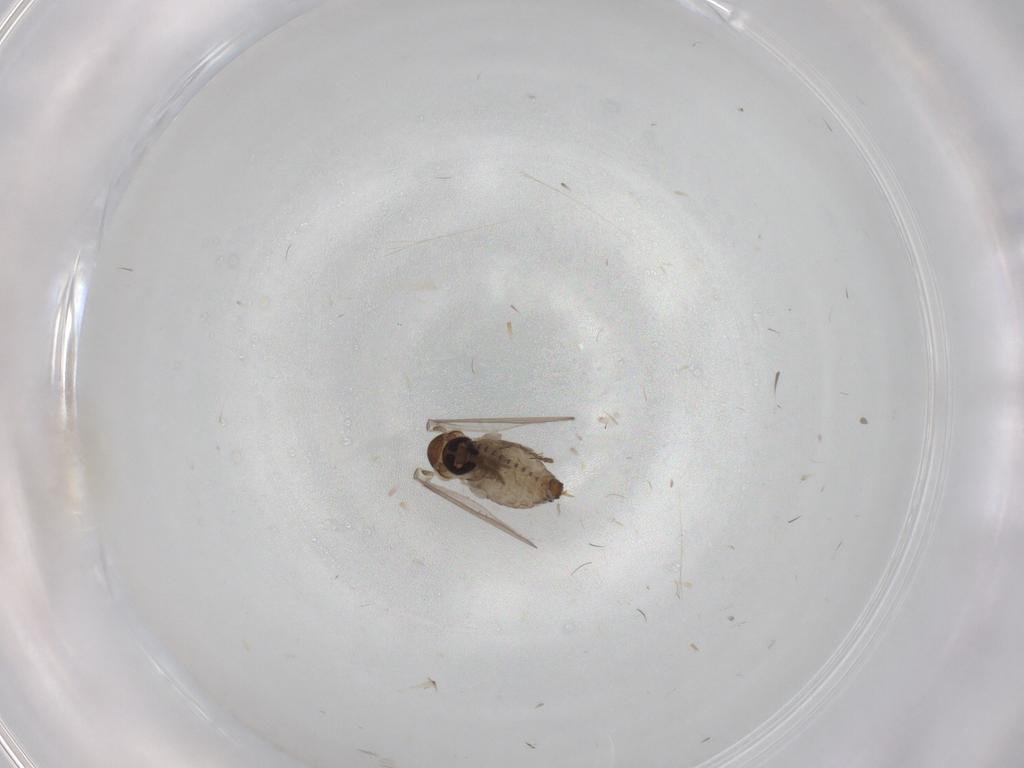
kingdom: Animalia
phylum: Arthropoda
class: Insecta
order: Diptera
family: Cecidomyiidae
